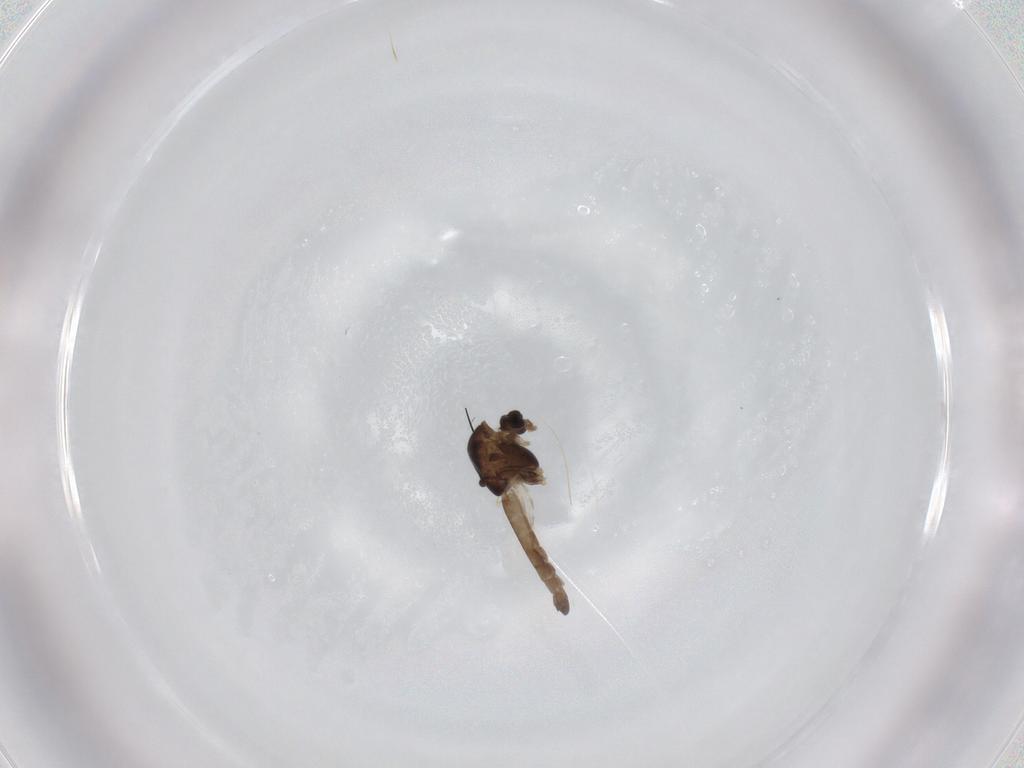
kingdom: Animalia
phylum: Arthropoda
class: Insecta
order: Diptera
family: Chironomidae
